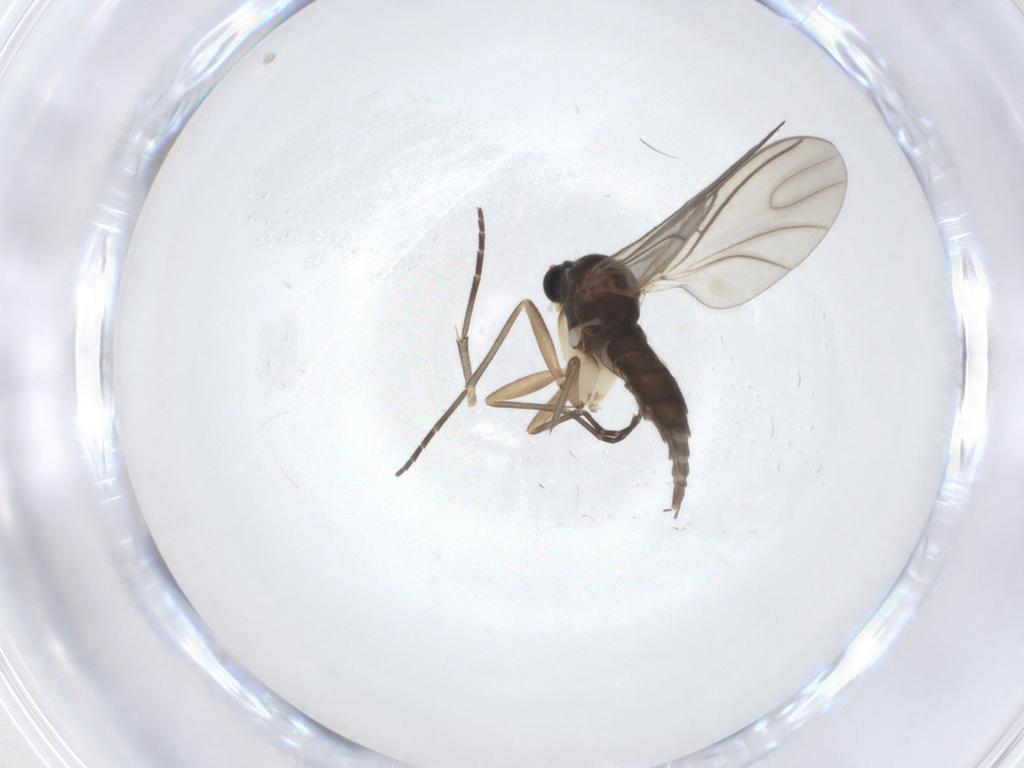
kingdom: Animalia
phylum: Arthropoda
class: Insecta
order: Diptera
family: Sciaridae
